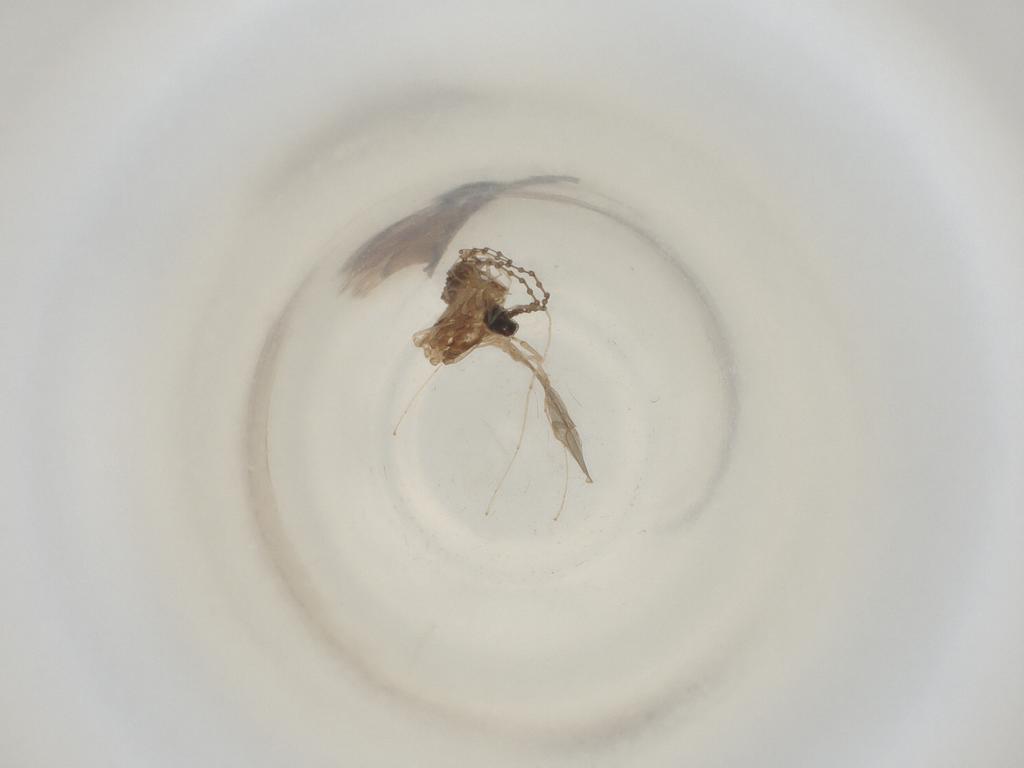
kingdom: Animalia
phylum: Arthropoda
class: Insecta
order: Diptera
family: Cecidomyiidae
